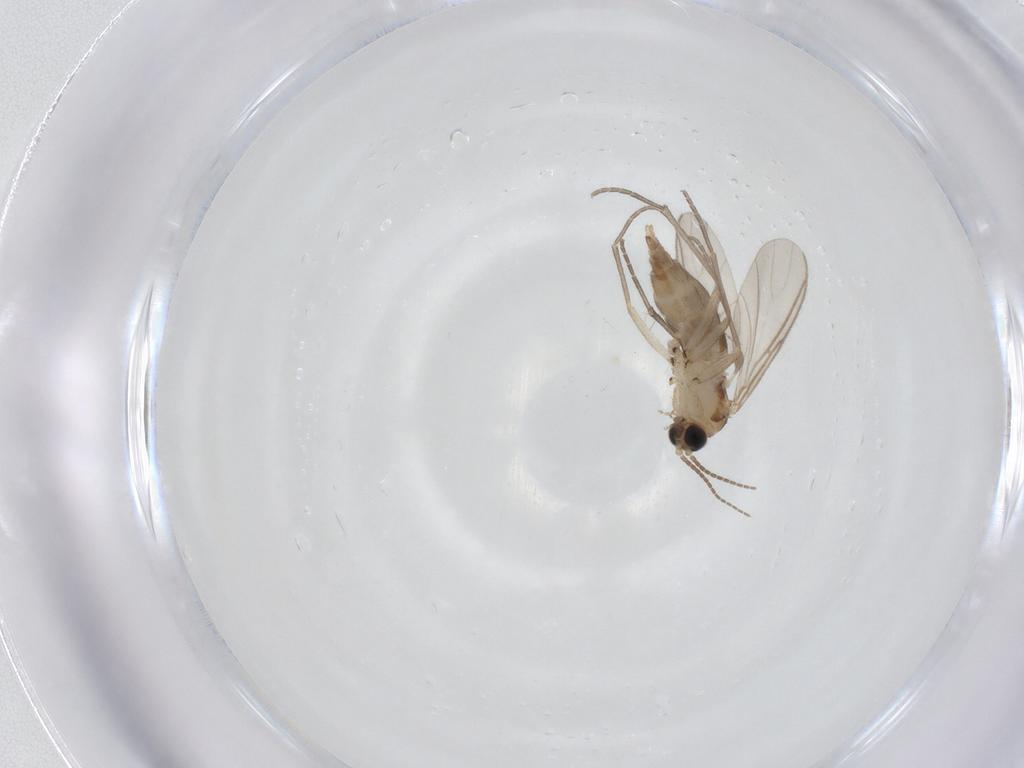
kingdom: Animalia
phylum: Arthropoda
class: Insecta
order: Diptera
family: Sciaridae
